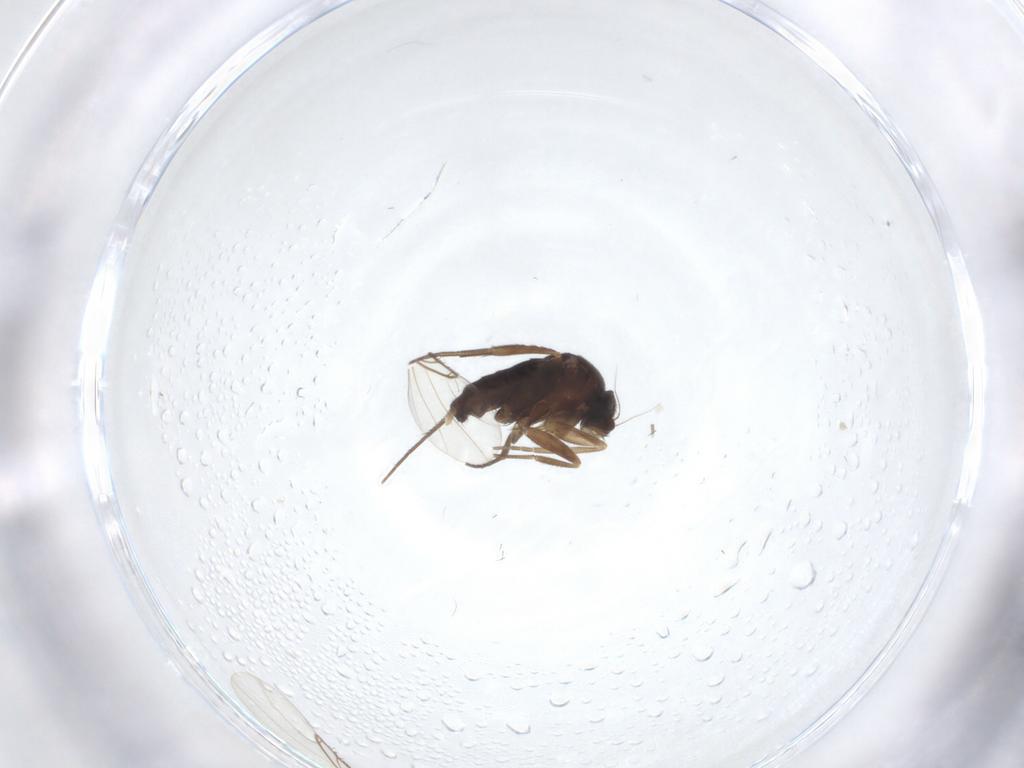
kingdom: Animalia
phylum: Arthropoda
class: Insecta
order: Diptera
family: Phoridae
